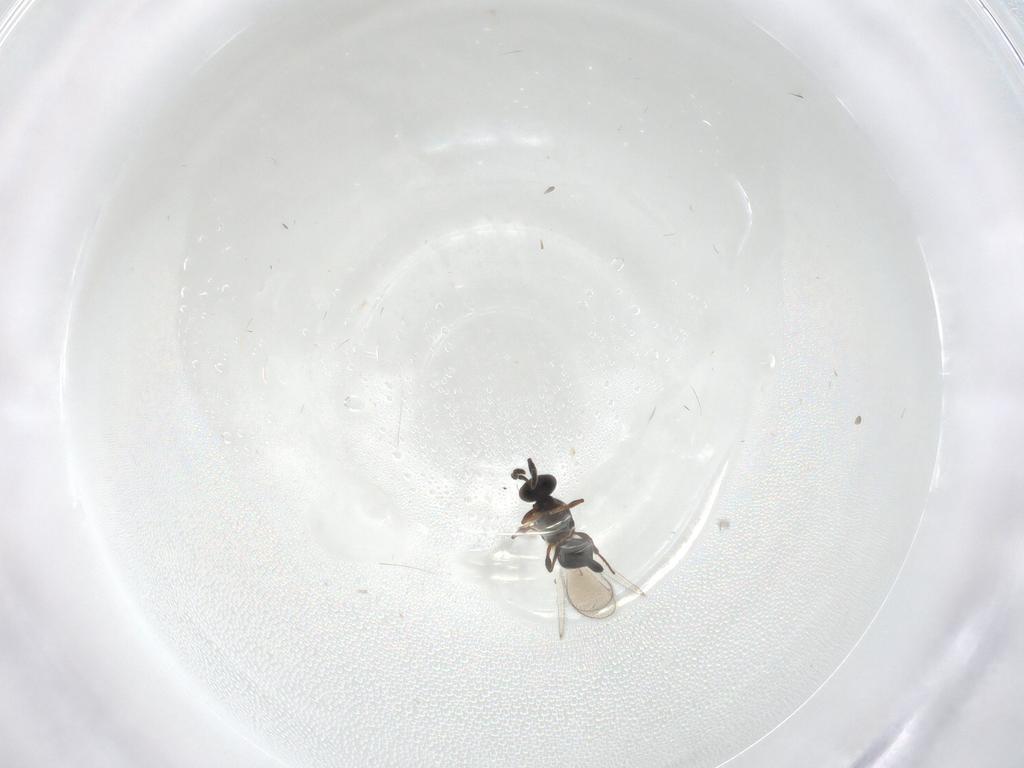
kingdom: Animalia
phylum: Arthropoda
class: Insecta
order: Hymenoptera
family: Platygastridae
